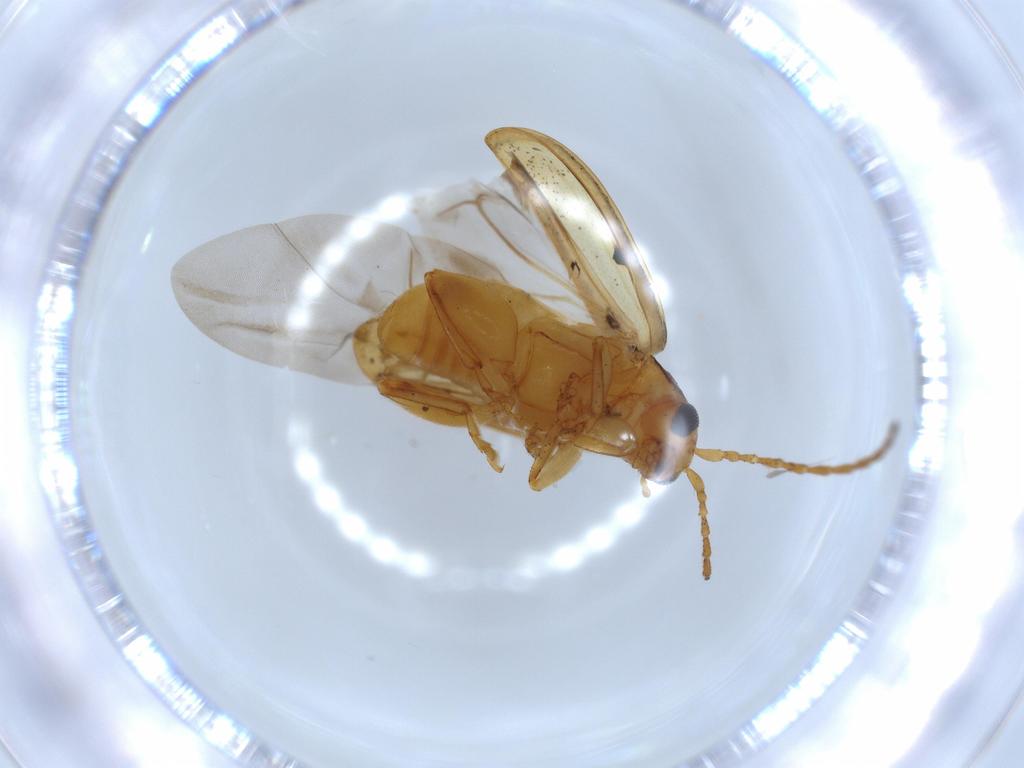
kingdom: Animalia
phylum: Arthropoda
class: Insecta
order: Coleoptera
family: Chrysomelidae
